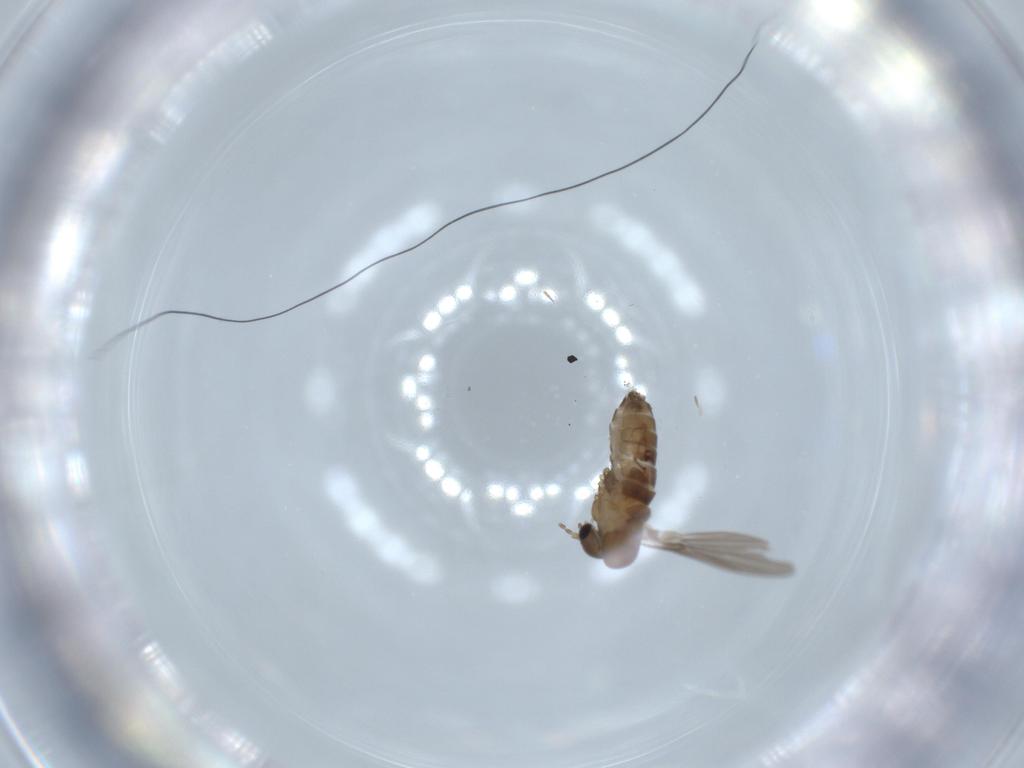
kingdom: Animalia
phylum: Arthropoda
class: Insecta
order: Diptera
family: Psychodidae
